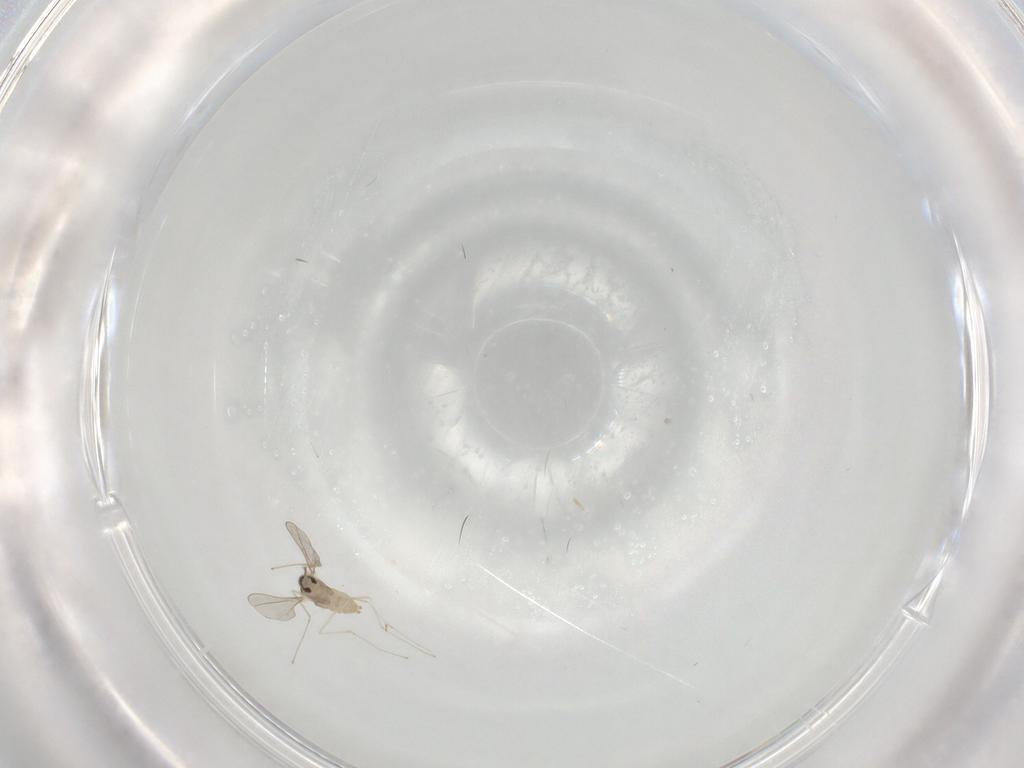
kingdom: Animalia
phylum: Arthropoda
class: Insecta
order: Diptera
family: Cecidomyiidae
